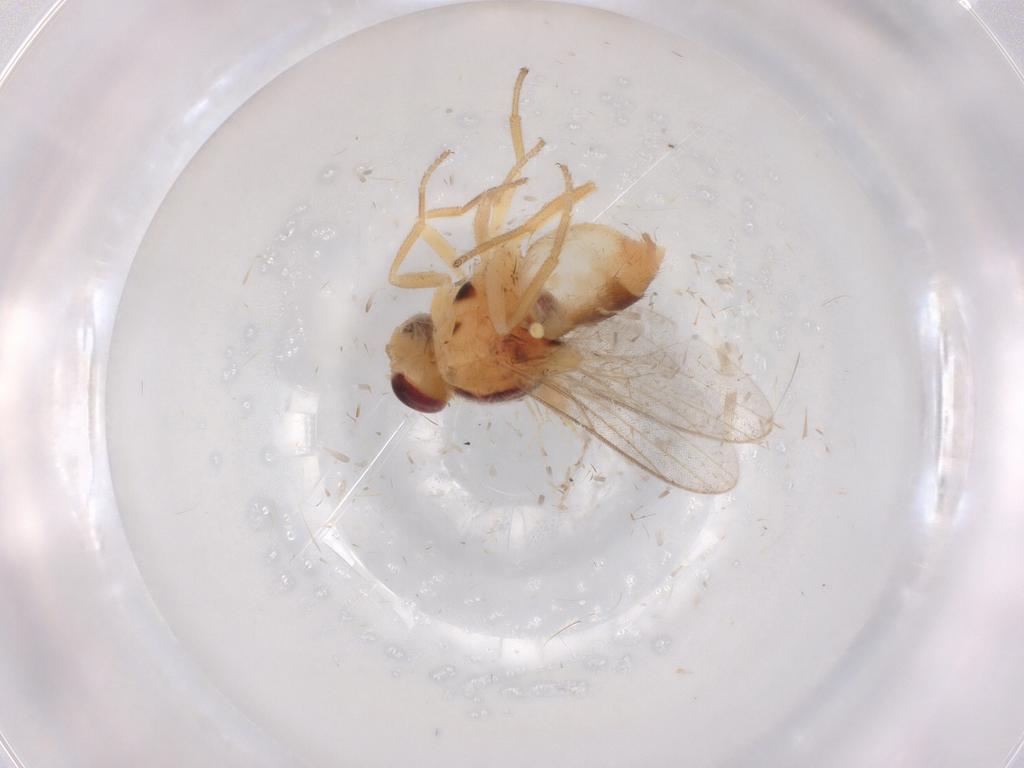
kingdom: Animalia
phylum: Arthropoda
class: Insecta
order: Diptera
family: Chloropidae
